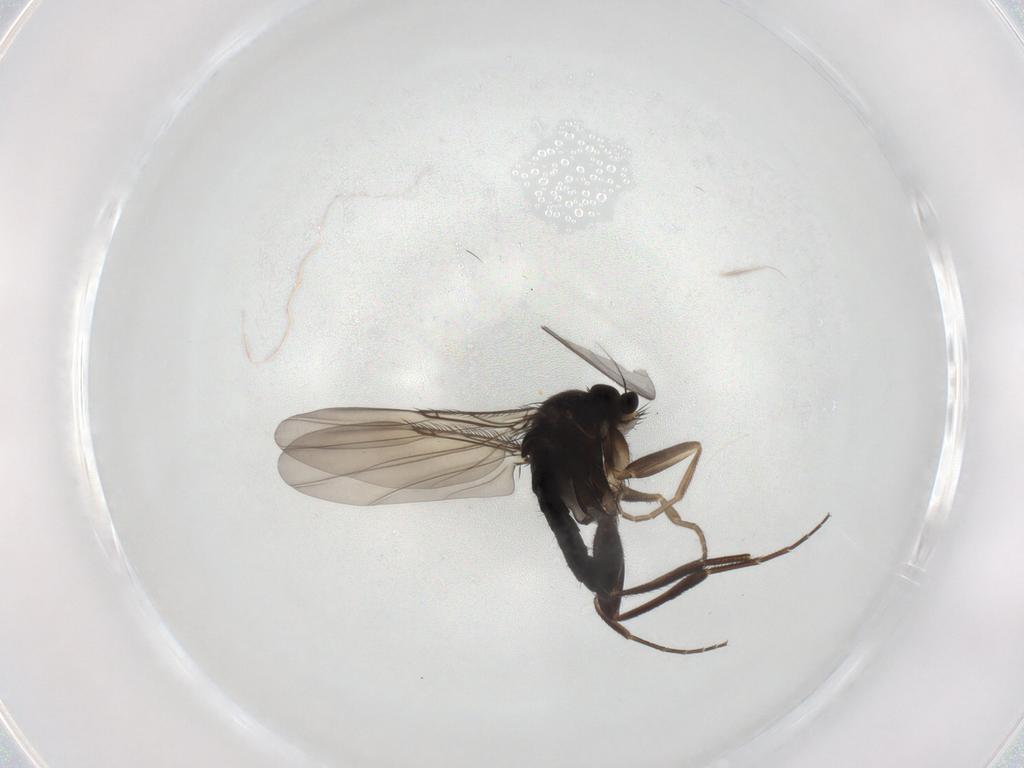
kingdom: Animalia
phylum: Arthropoda
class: Insecta
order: Diptera
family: Phoridae
